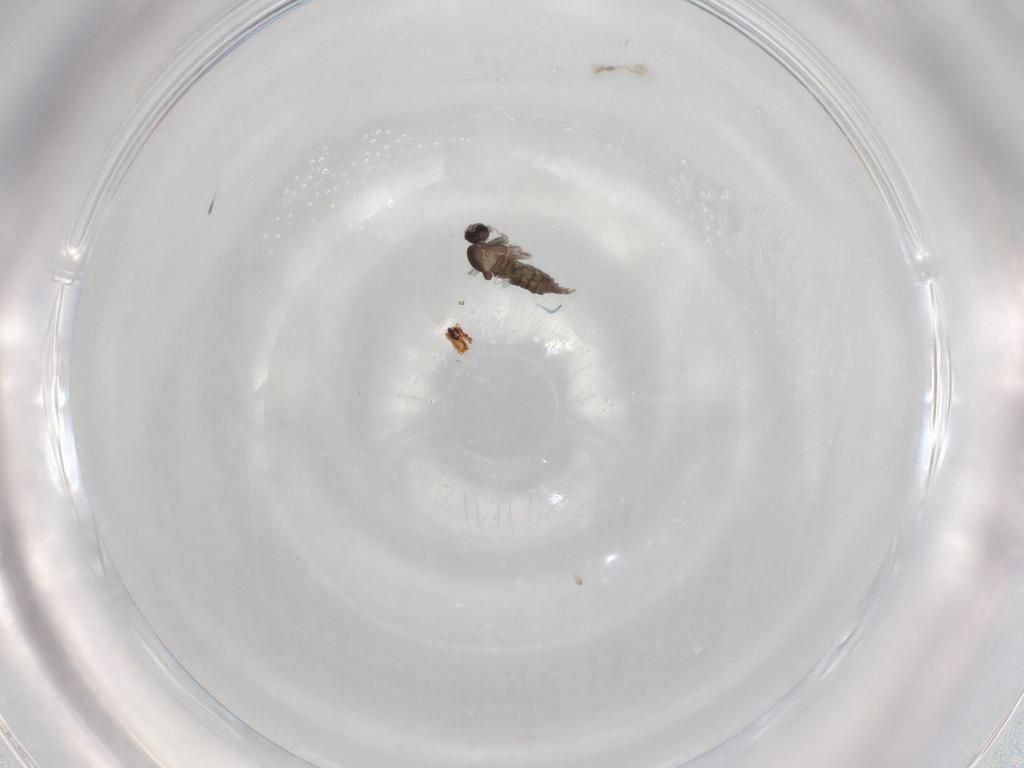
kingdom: Animalia
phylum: Arthropoda
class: Insecta
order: Diptera
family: Cecidomyiidae
